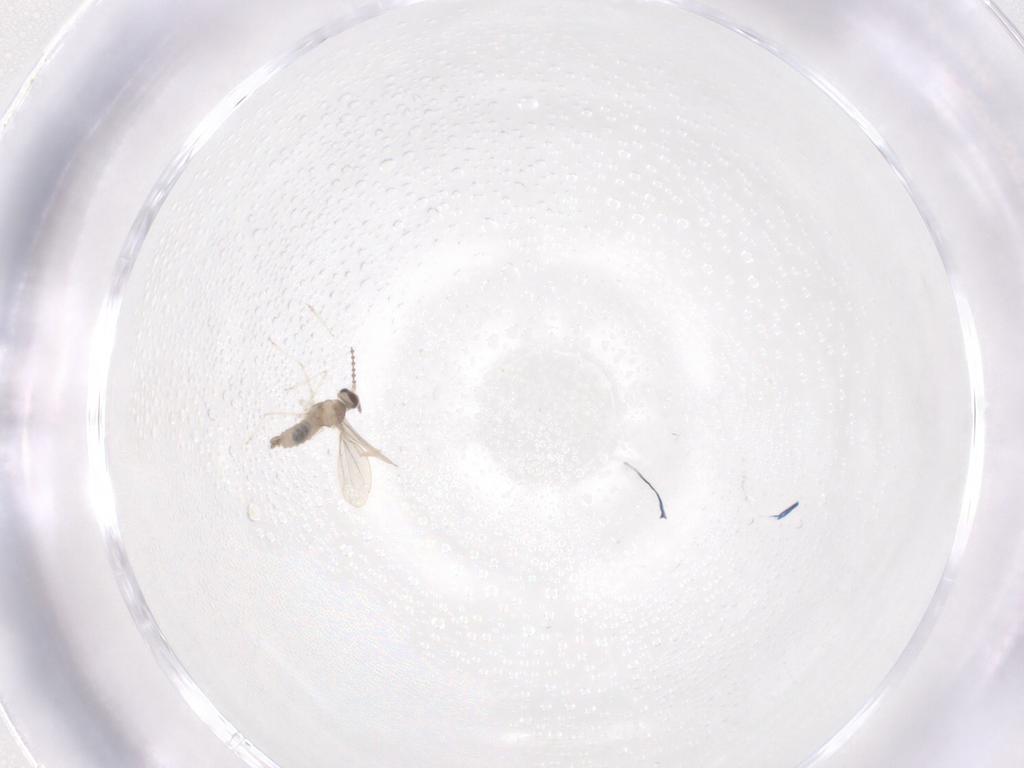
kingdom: Animalia
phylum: Arthropoda
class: Insecta
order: Diptera
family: Cecidomyiidae
